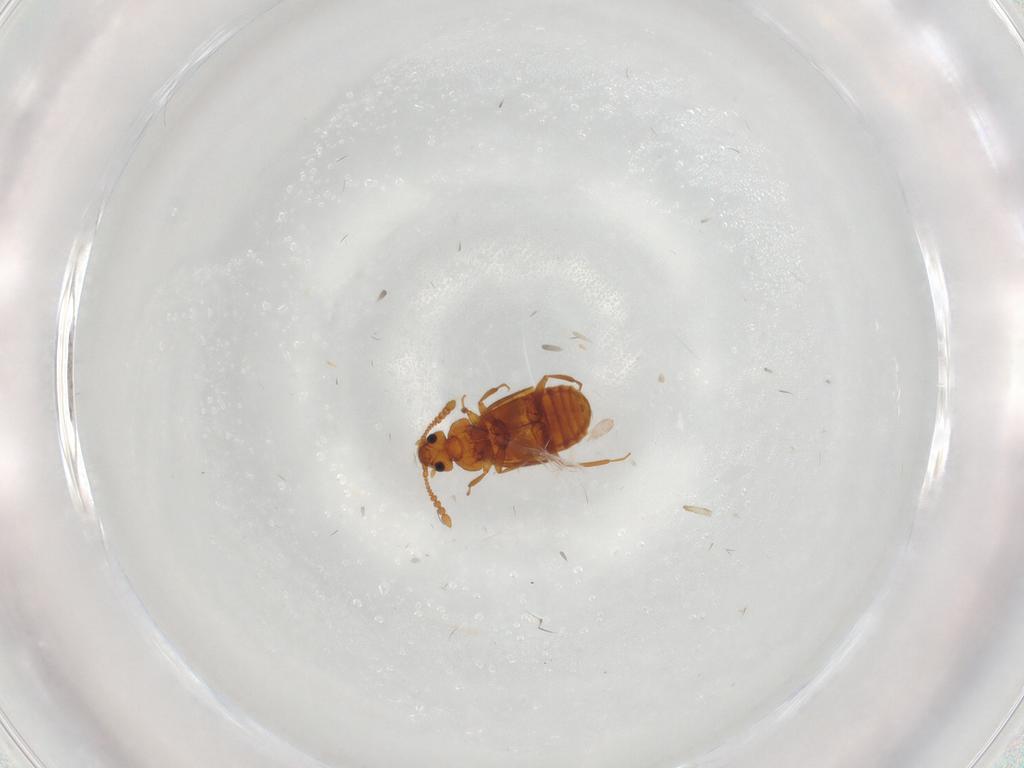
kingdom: Animalia
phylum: Arthropoda
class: Insecta
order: Coleoptera
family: Staphylinidae
